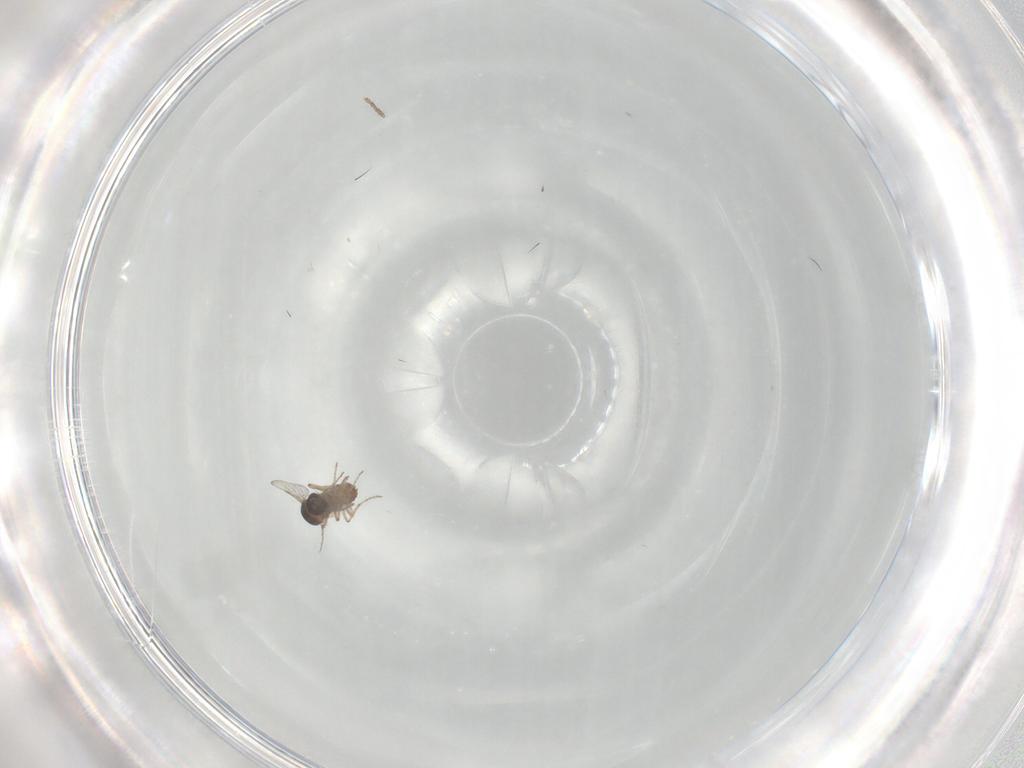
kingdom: Animalia
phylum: Arthropoda
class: Insecta
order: Diptera
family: Ceratopogonidae
